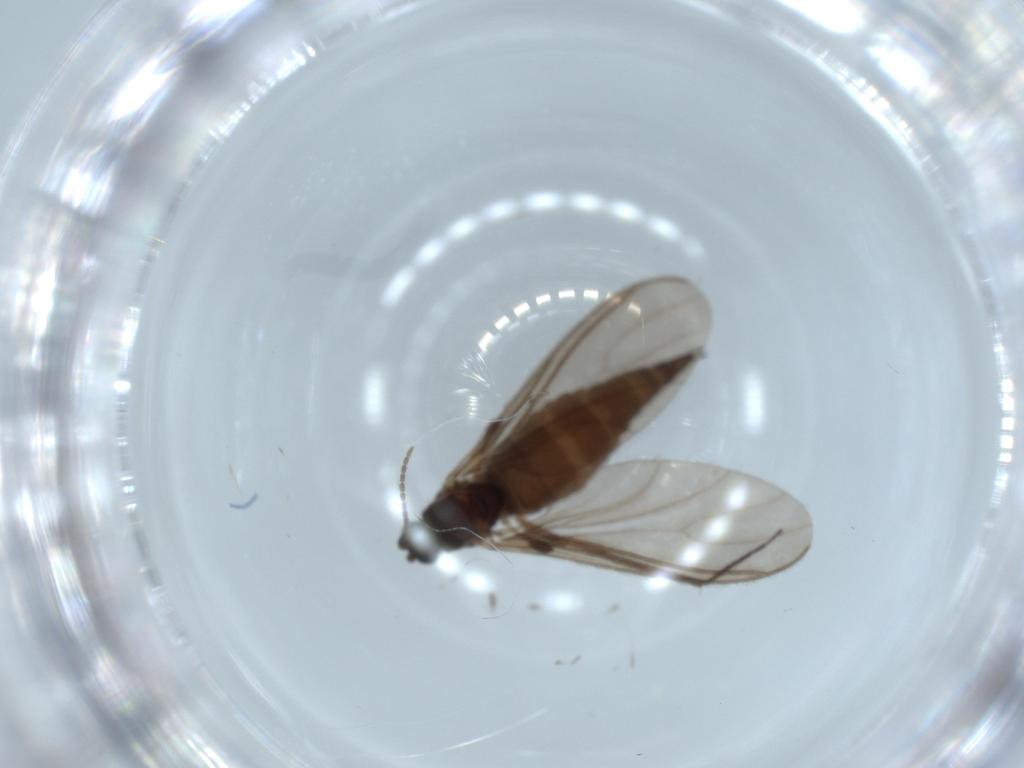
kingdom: Animalia
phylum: Arthropoda
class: Insecta
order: Diptera
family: Sciaridae
